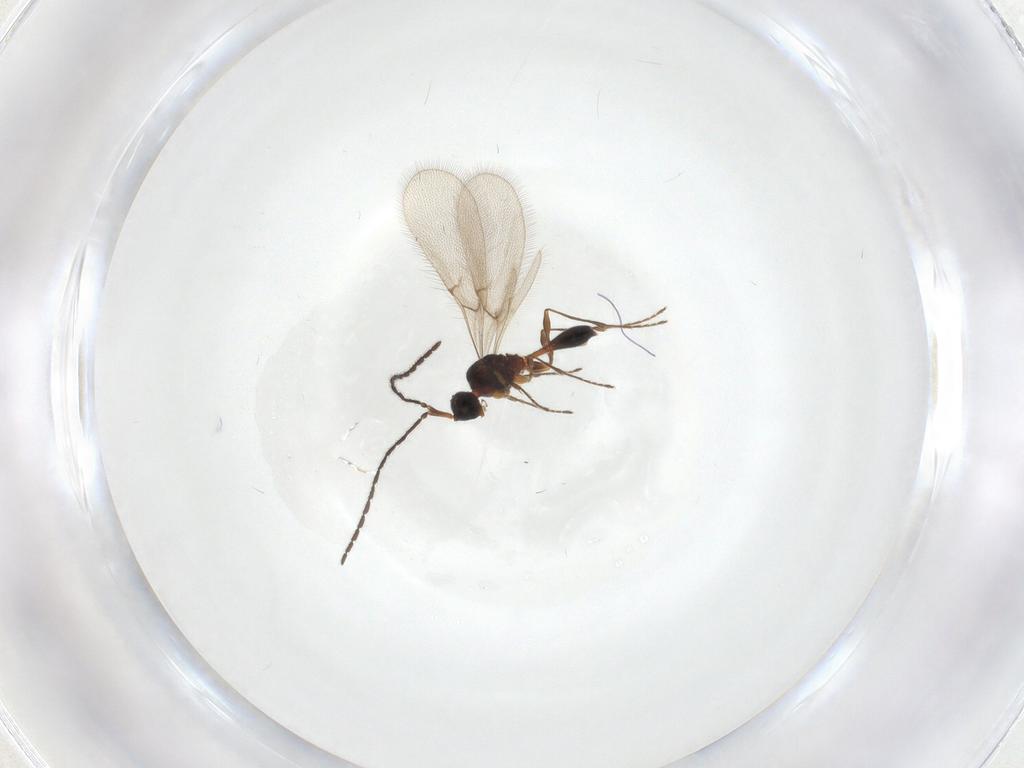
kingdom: Animalia
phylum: Arthropoda
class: Insecta
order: Hymenoptera
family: Diapriidae
